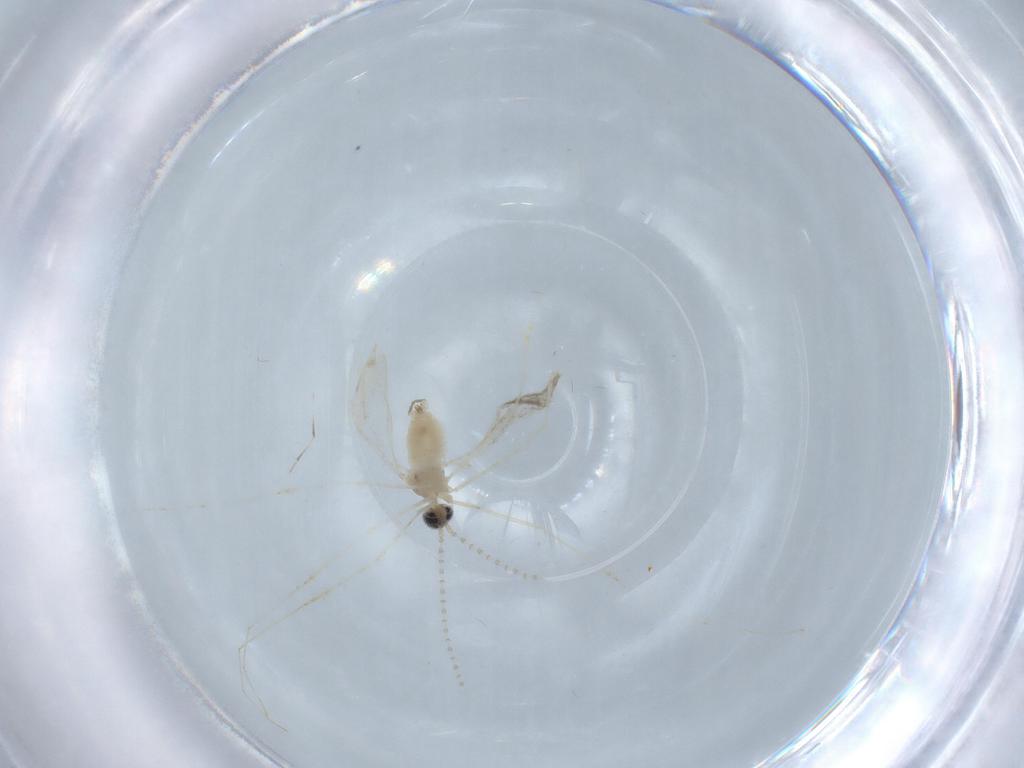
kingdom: Animalia
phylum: Arthropoda
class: Insecta
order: Diptera
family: Cecidomyiidae
